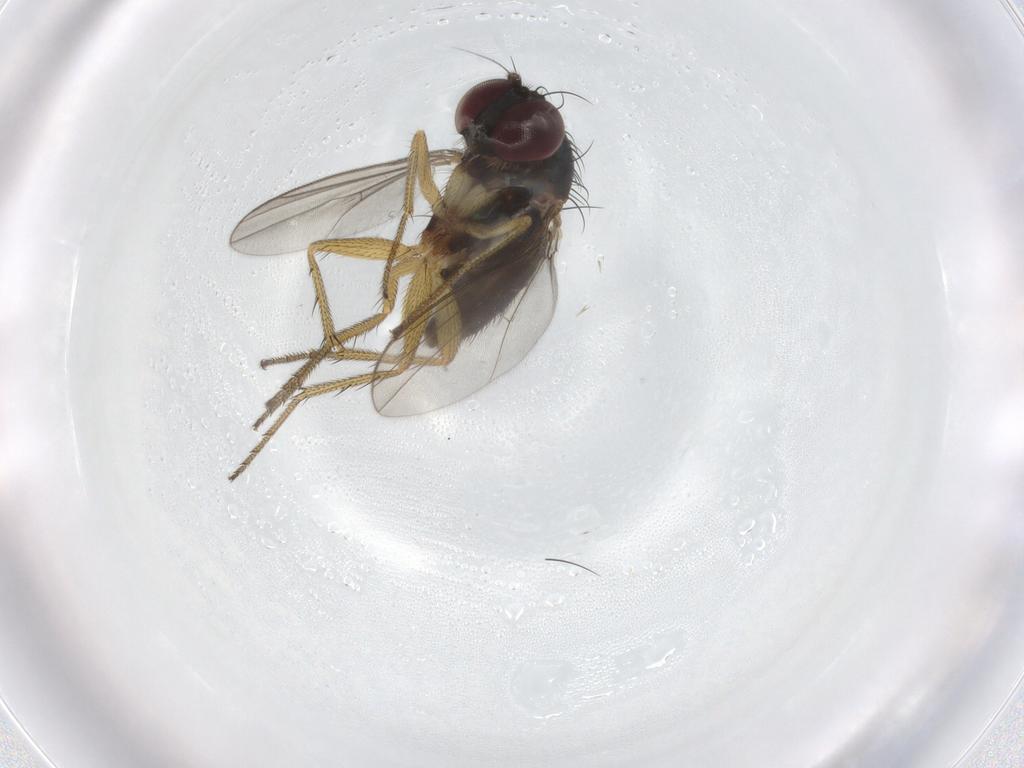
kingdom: Animalia
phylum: Arthropoda
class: Insecta
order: Diptera
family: Dolichopodidae
